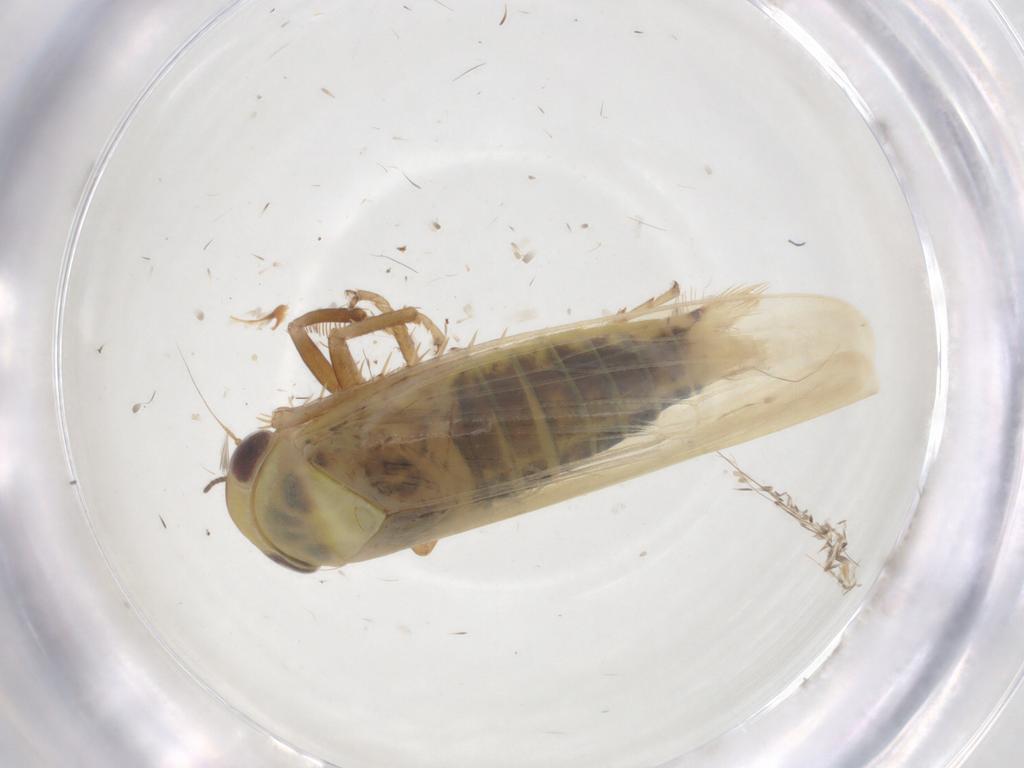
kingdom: Animalia
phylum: Arthropoda
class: Insecta
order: Hemiptera
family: Cicadellidae
